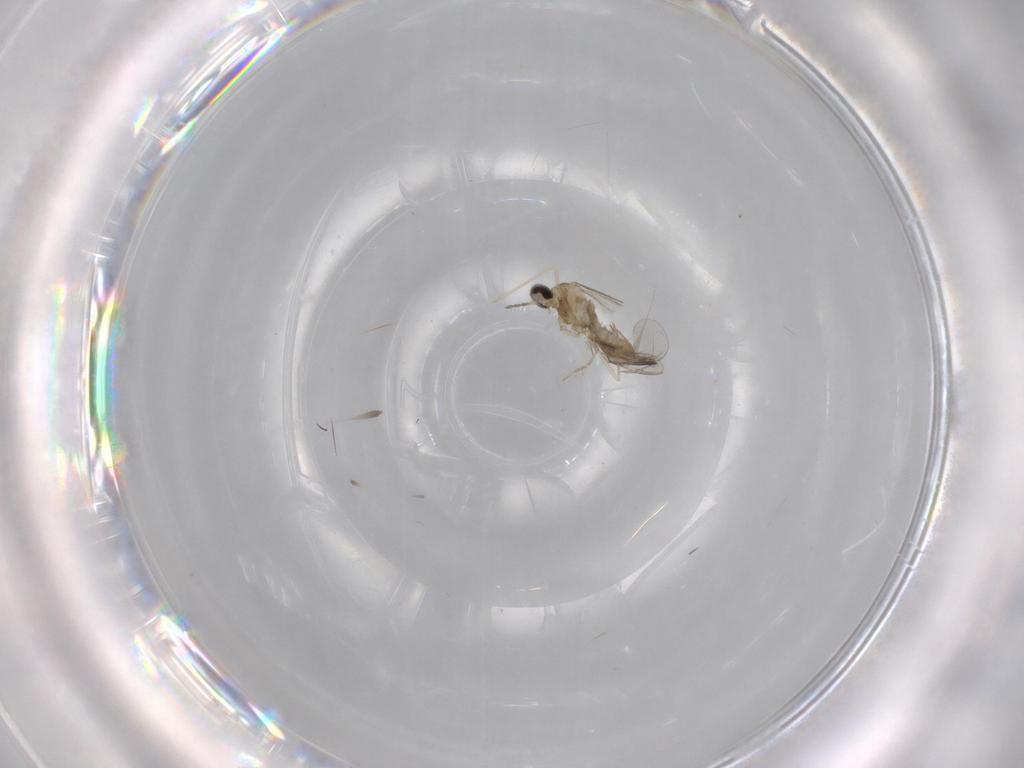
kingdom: Animalia
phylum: Arthropoda
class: Insecta
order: Diptera
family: Cecidomyiidae
